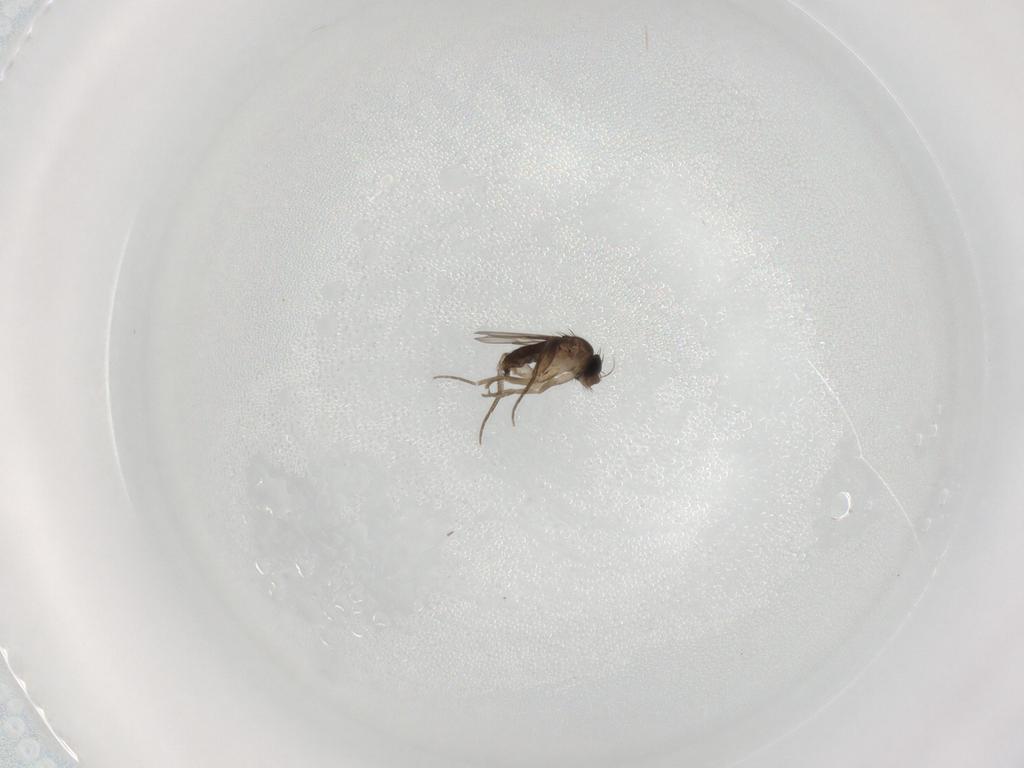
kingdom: Animalia
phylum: Arthropoda
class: Insecta
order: Diptera
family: Phoridae
